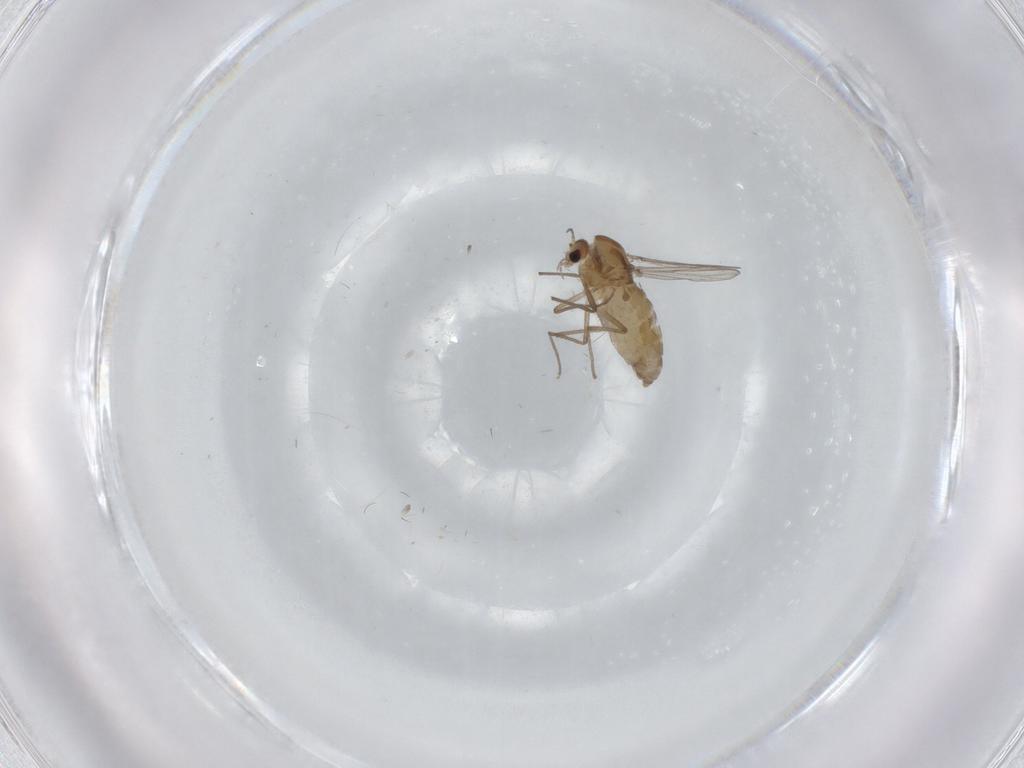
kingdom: Animalia
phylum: Arthropoda
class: Insecta
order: Diptera
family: Chironomidae
